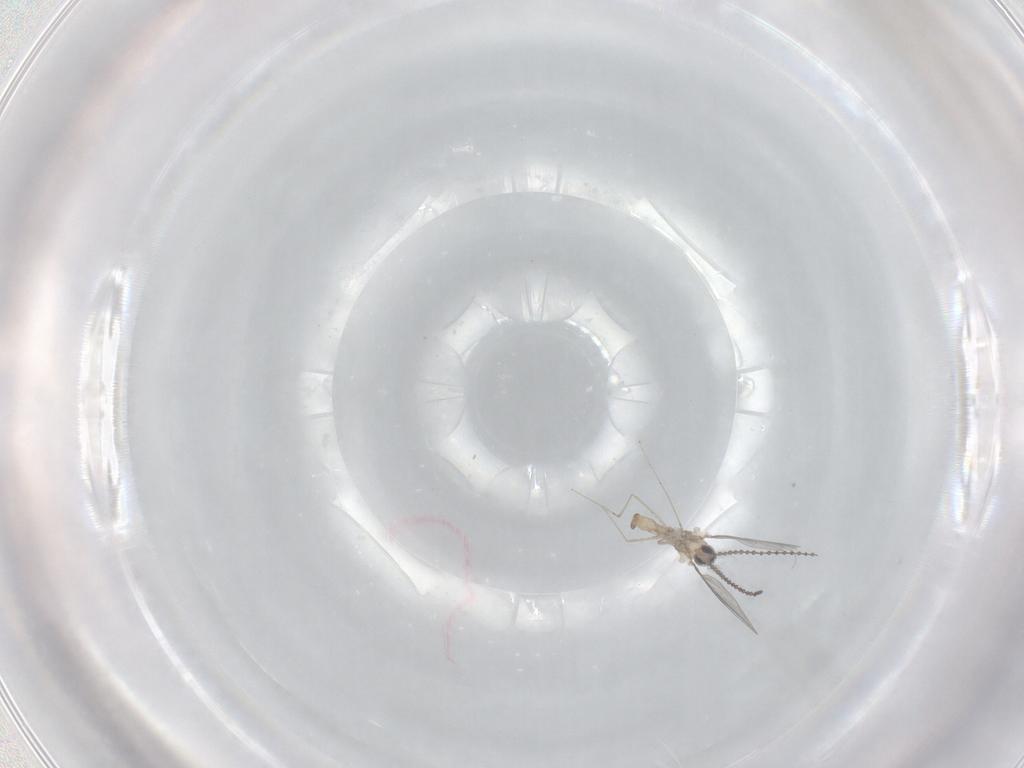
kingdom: Animalia
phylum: Arthropoda
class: Insecta
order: Diptera
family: Cecidomyiidae
